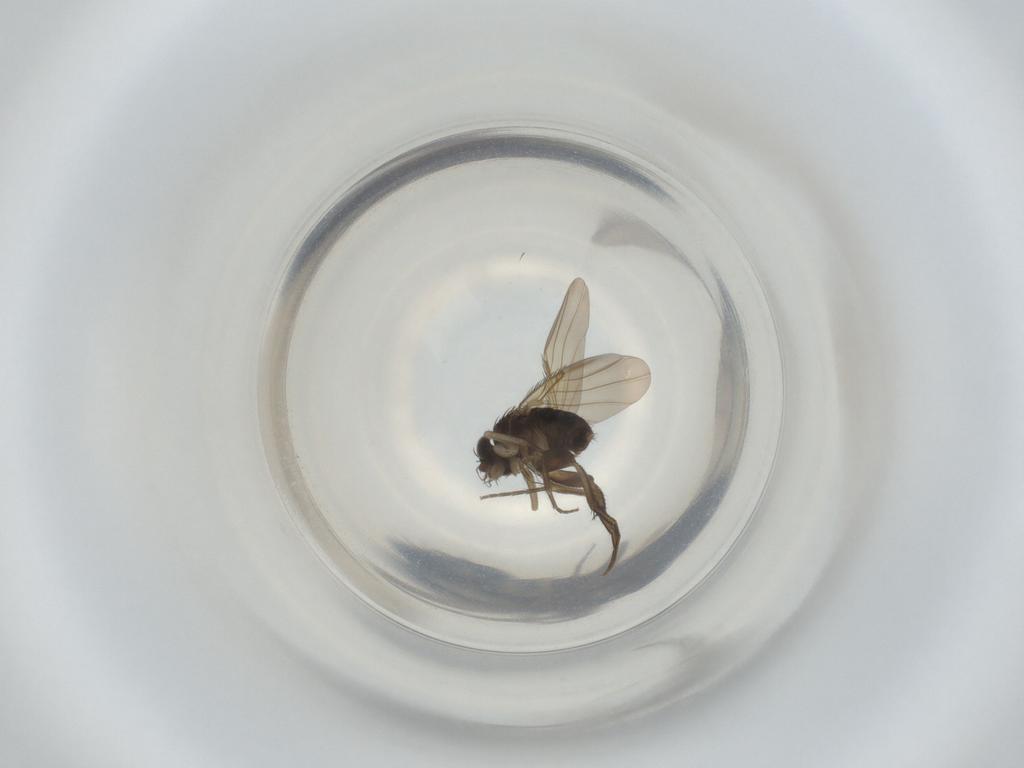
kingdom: Animalia
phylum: Arthropoda
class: Insecta
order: Diptera
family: Phoridae
